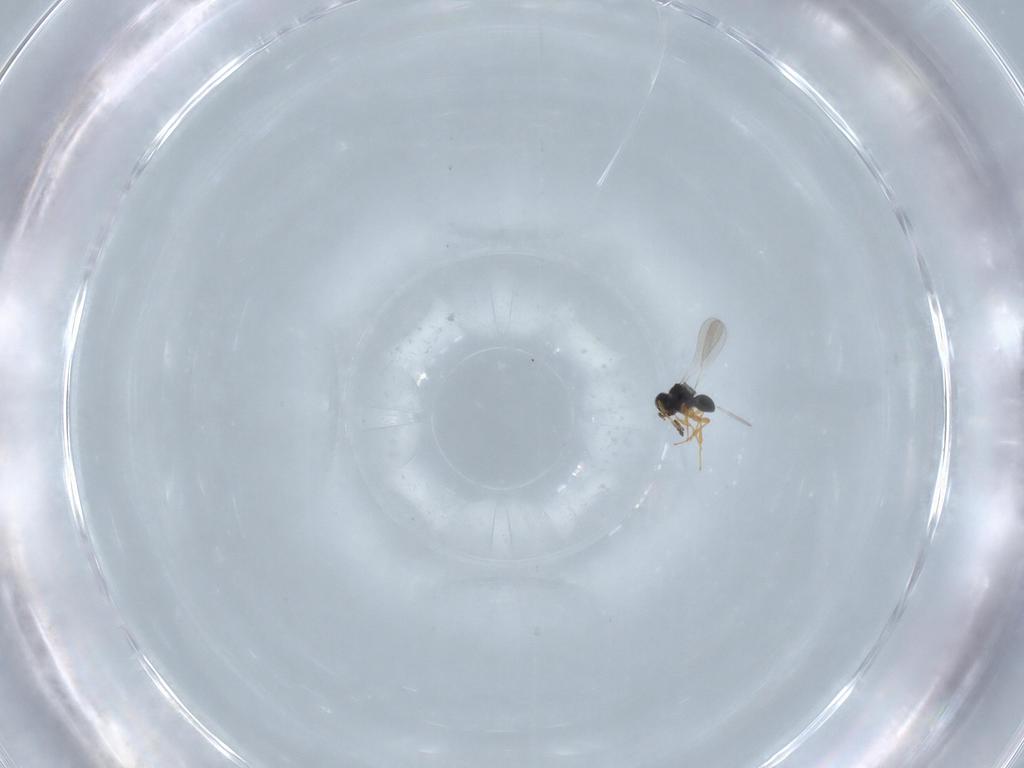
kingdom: Animalia
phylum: Arthropoda
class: Insecta
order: Hymenoptera
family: Platygastridae
